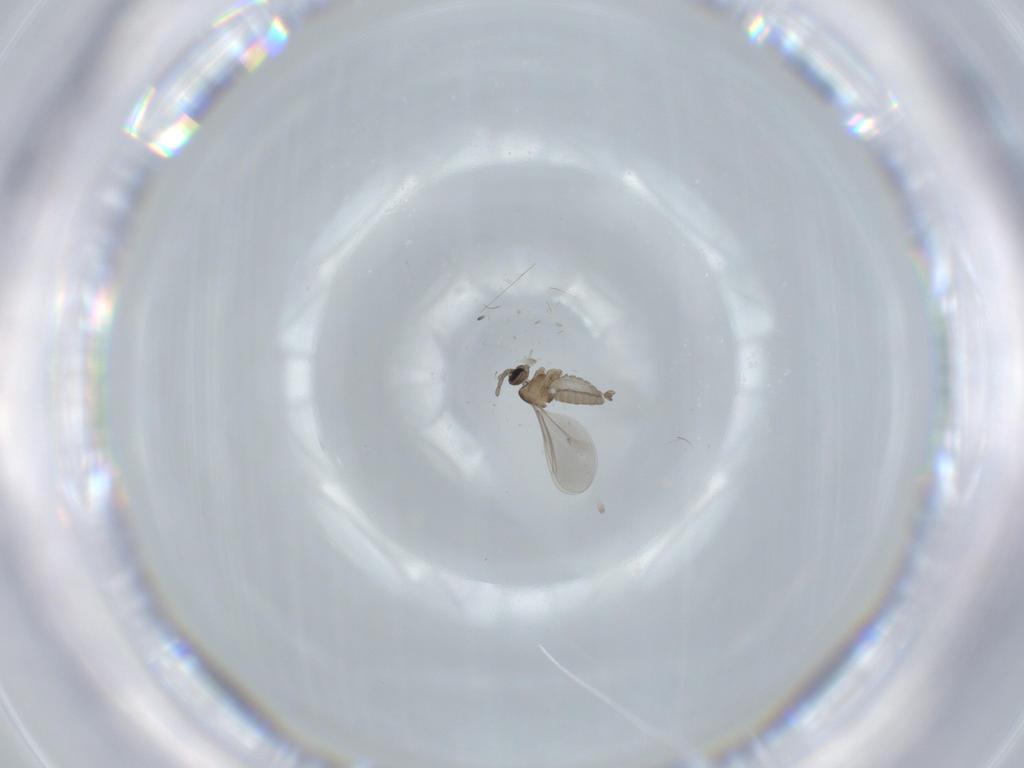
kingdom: Animalia
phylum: Arthropoda
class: Insecta
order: Diptera
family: Cecidomyiidae
